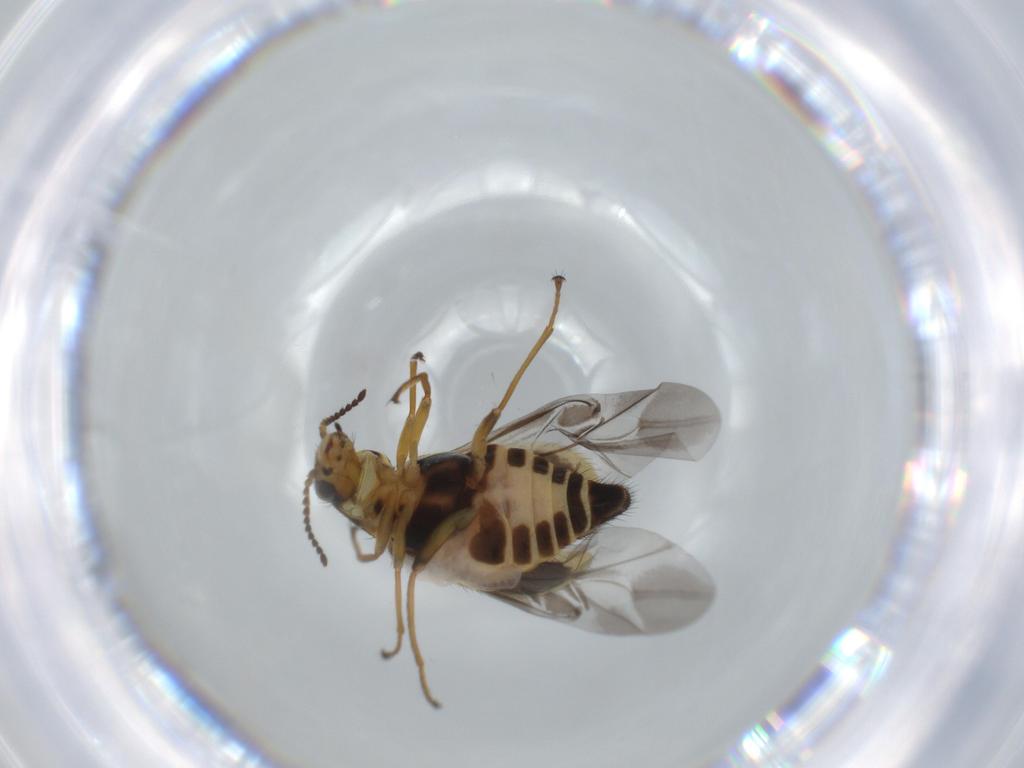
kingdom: Animalia
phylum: Arthropoda
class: Insecta
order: Coleoptera
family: Melyridae
